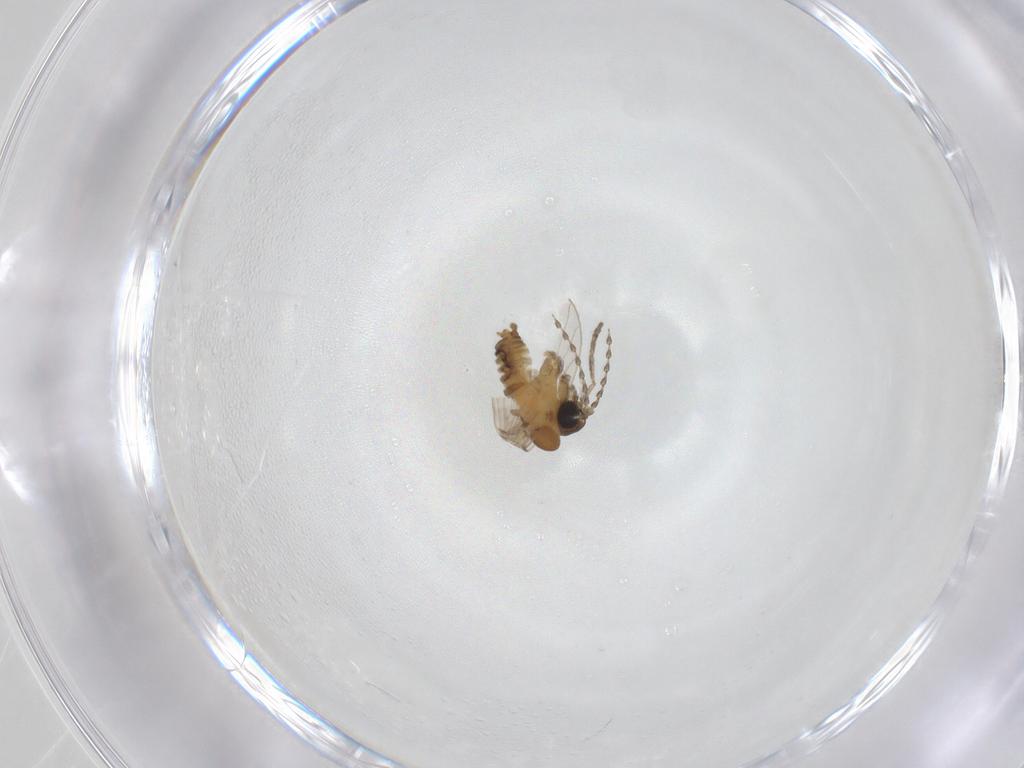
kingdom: Animalia
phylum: Arthropoda
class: Insecta
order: Diptera
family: Psychodidae
